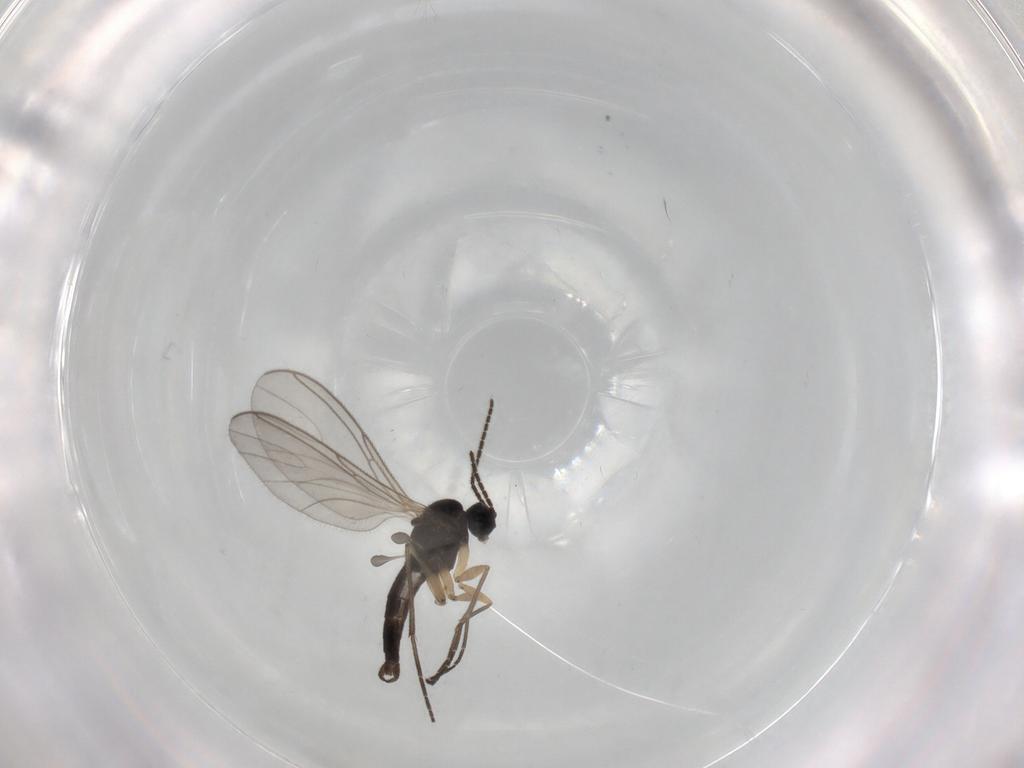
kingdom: Animalia
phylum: Arthropoda
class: Insecta
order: Diptera
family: Sciaridae
